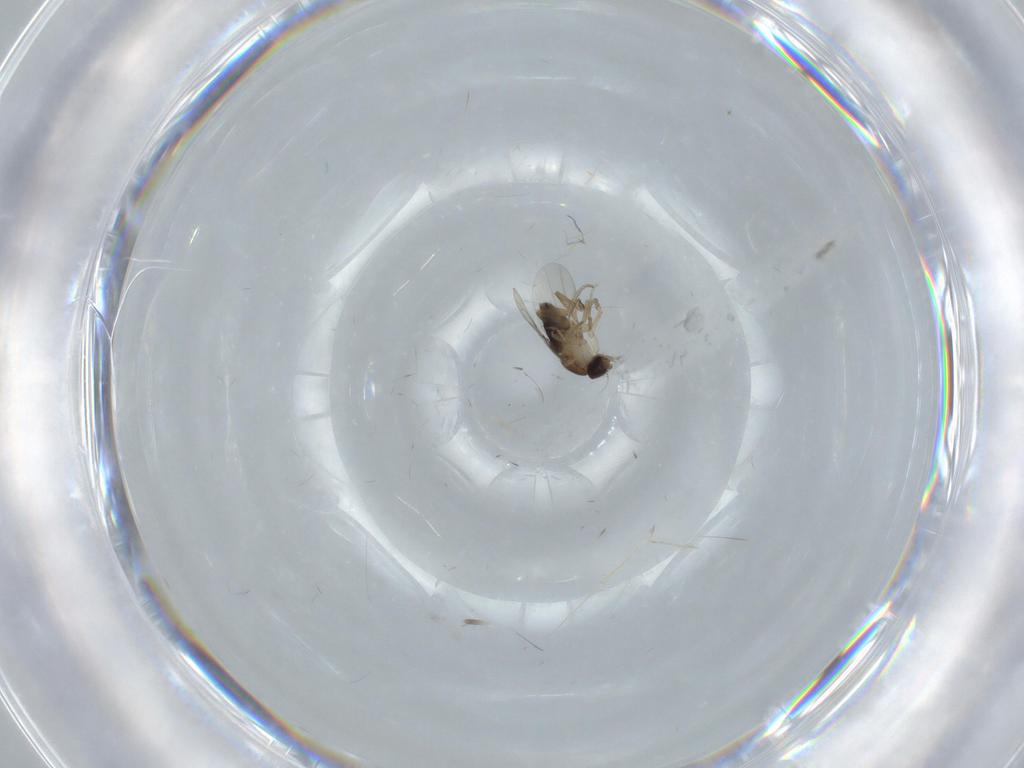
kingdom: Animalia
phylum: Arthropoda
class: Insecta
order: Diptera
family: Phoridae
